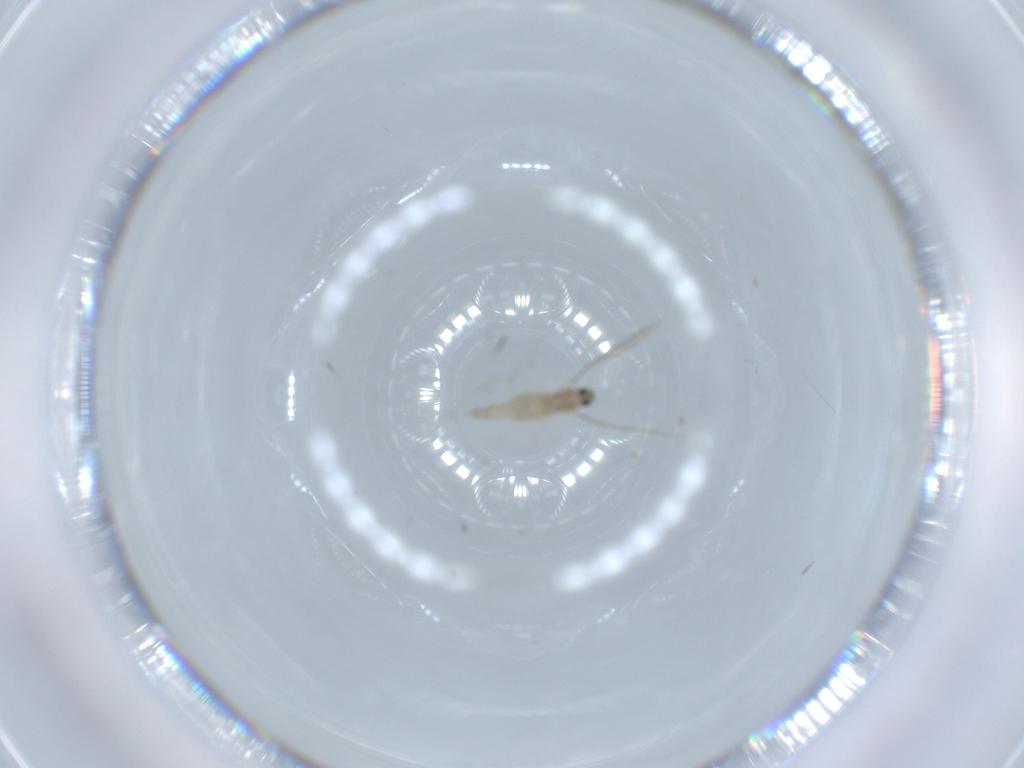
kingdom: Animalia
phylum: Arthropoda
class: Insecta
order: Diptera
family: Cecidomyiidae
